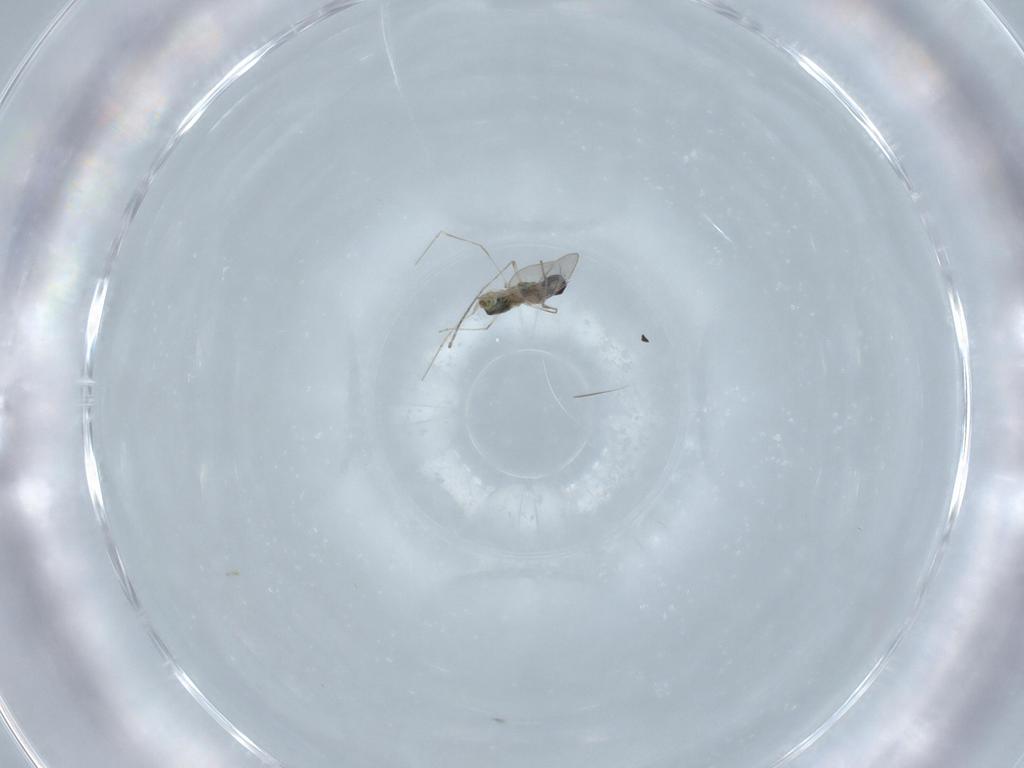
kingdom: Animalia
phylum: Arthropoda
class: Insecta
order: Diptera
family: Cecidomyiidae
